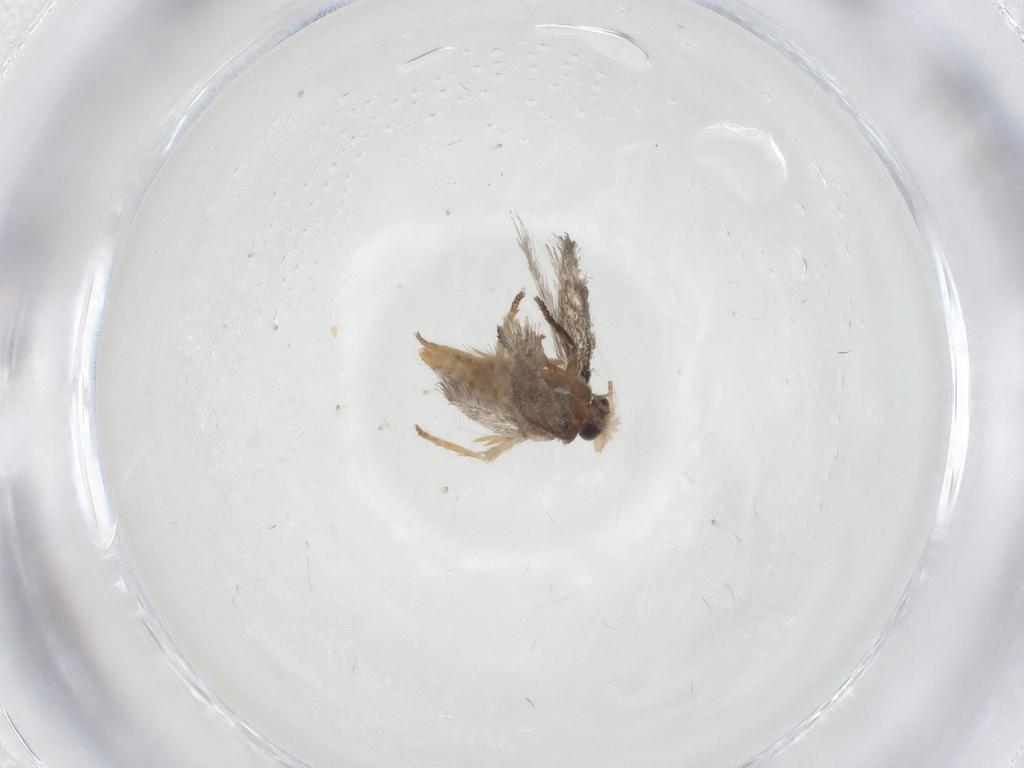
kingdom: Animalia
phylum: Arthropoda
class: Insecta
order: Lepidoptera
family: Nepticulidae
